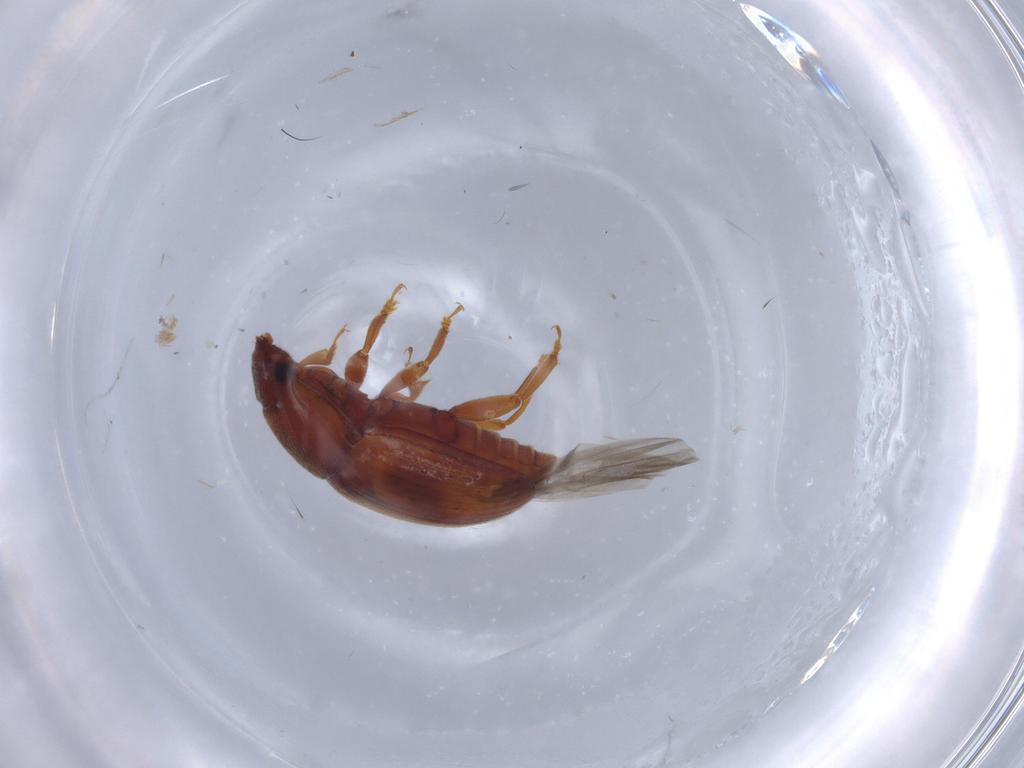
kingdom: Animalia
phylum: Arthropoda
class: Insecta
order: Coleoptera
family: Nitidulidae
